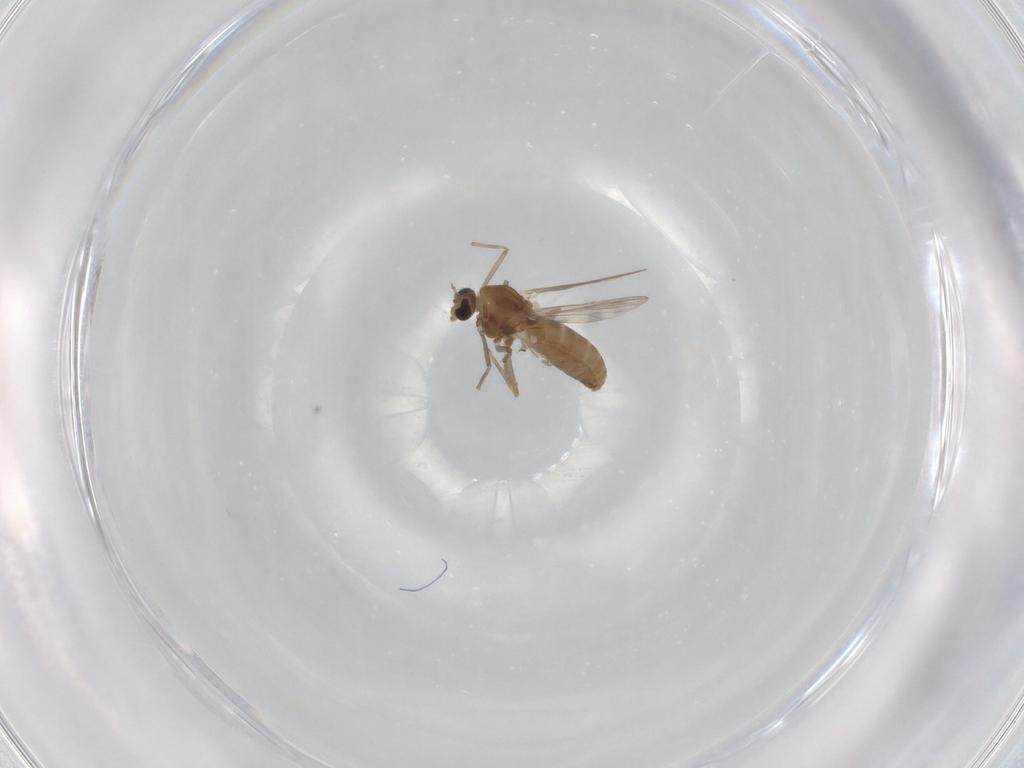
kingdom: Animalia
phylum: Arthropoda
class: Insecta
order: Diptera
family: Chironomidae
